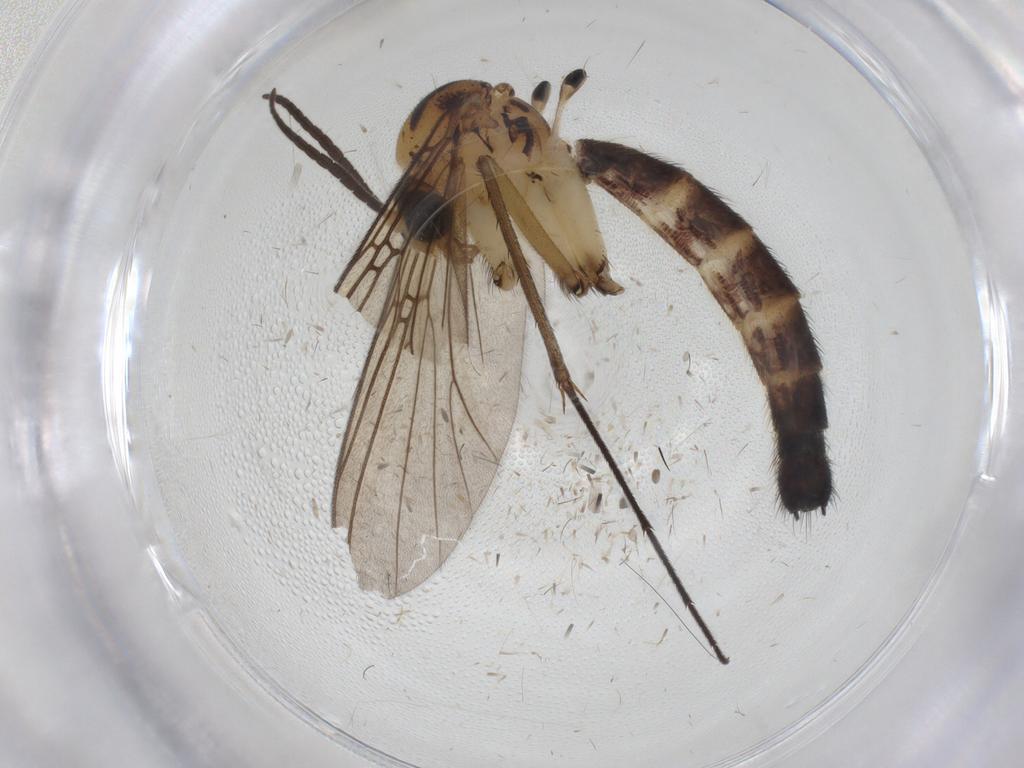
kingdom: Animalia
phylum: Arthropoda
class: Insecta
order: Diptera
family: Mycetophilidae
